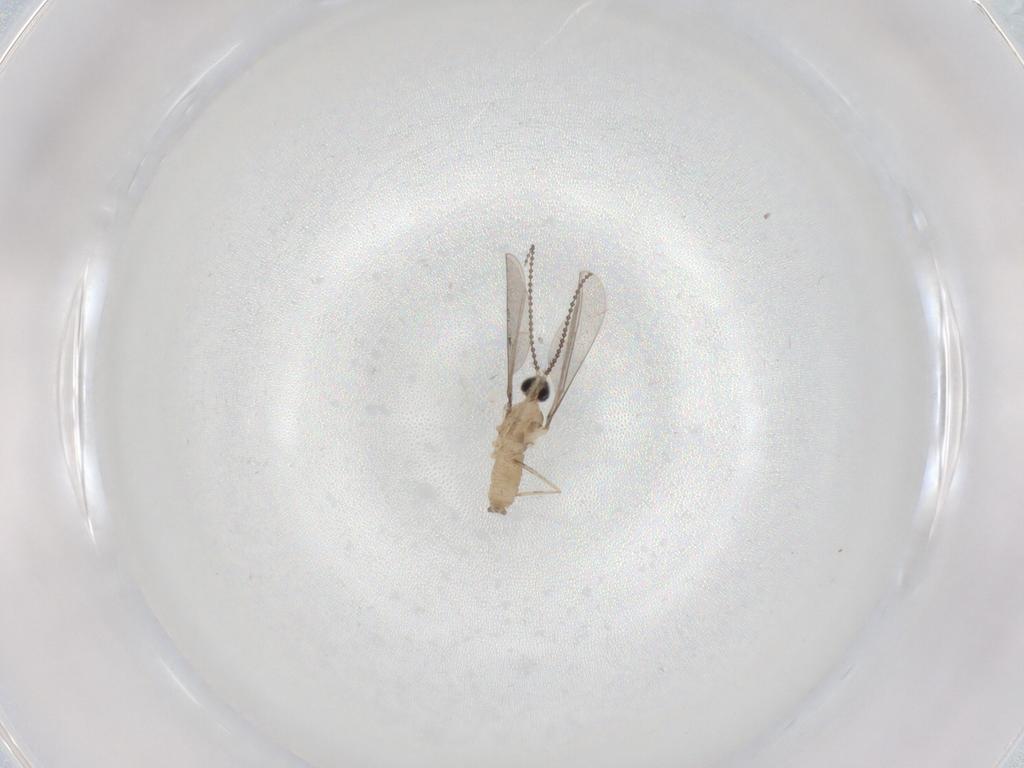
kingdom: Animalia
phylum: Arthropoda
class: Insecta
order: Diptera
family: Cecidomyiidae
